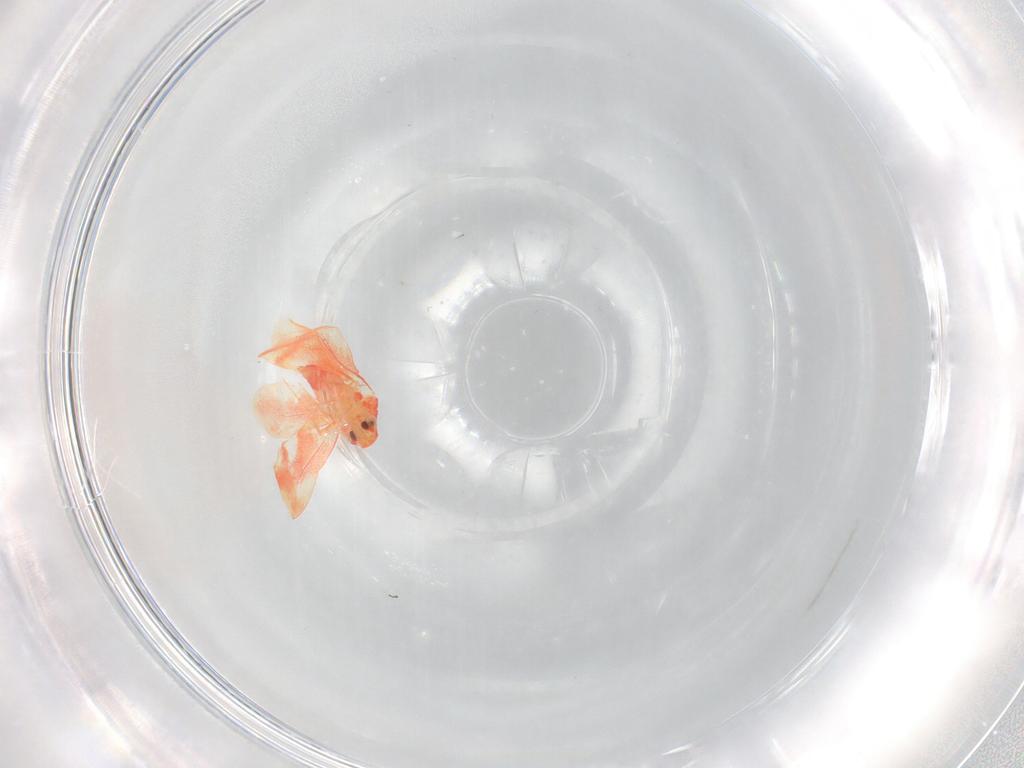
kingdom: Animalia
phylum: Arthropoda
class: Insecta
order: Hemiptera
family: Aleyrodidae
